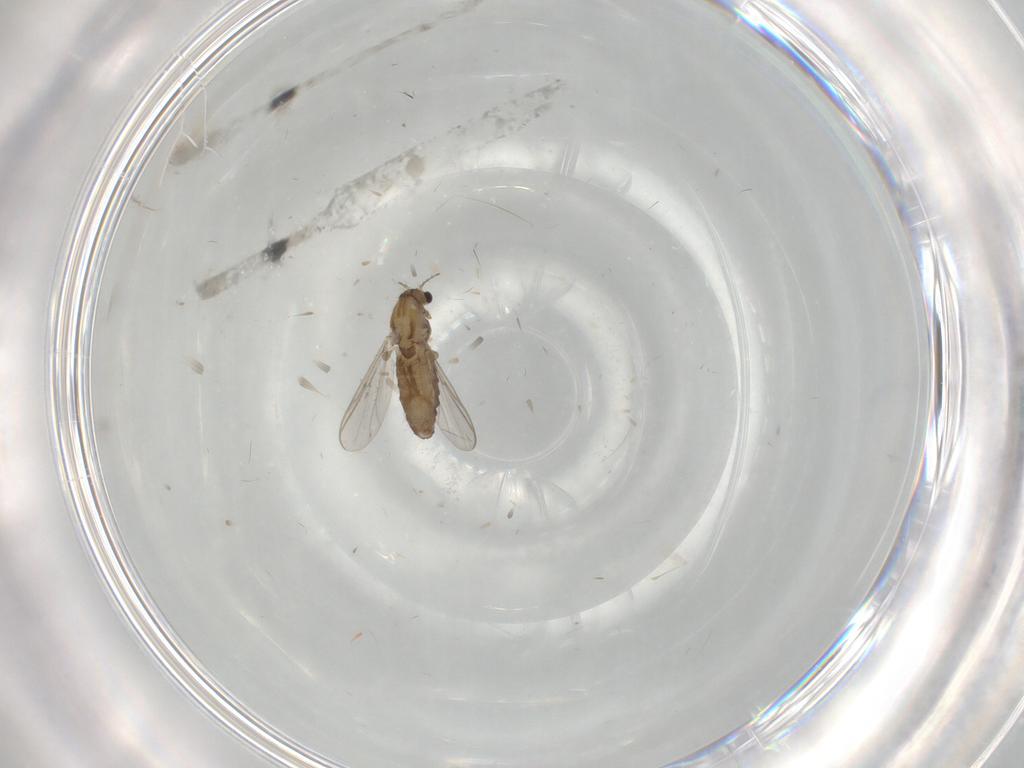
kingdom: Animalia
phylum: Arthropoda
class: Insecta
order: Diptera
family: Chironomidae
